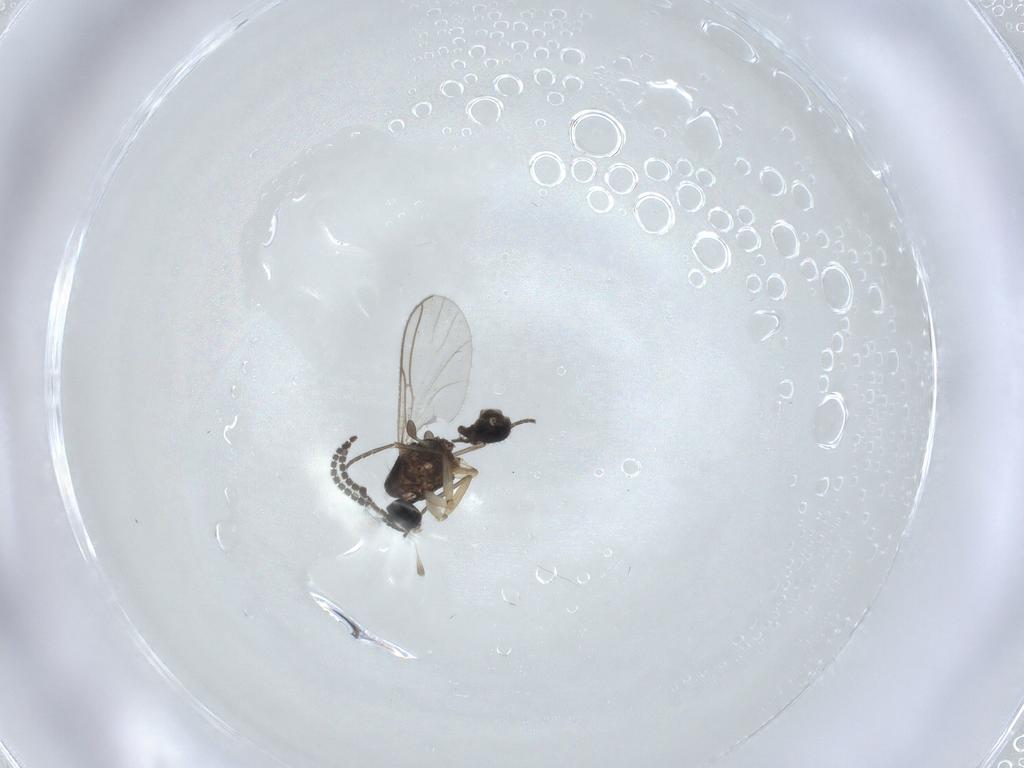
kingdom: Animalia
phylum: Arthropoda
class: Insecta
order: Diptera
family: Sciaridae
